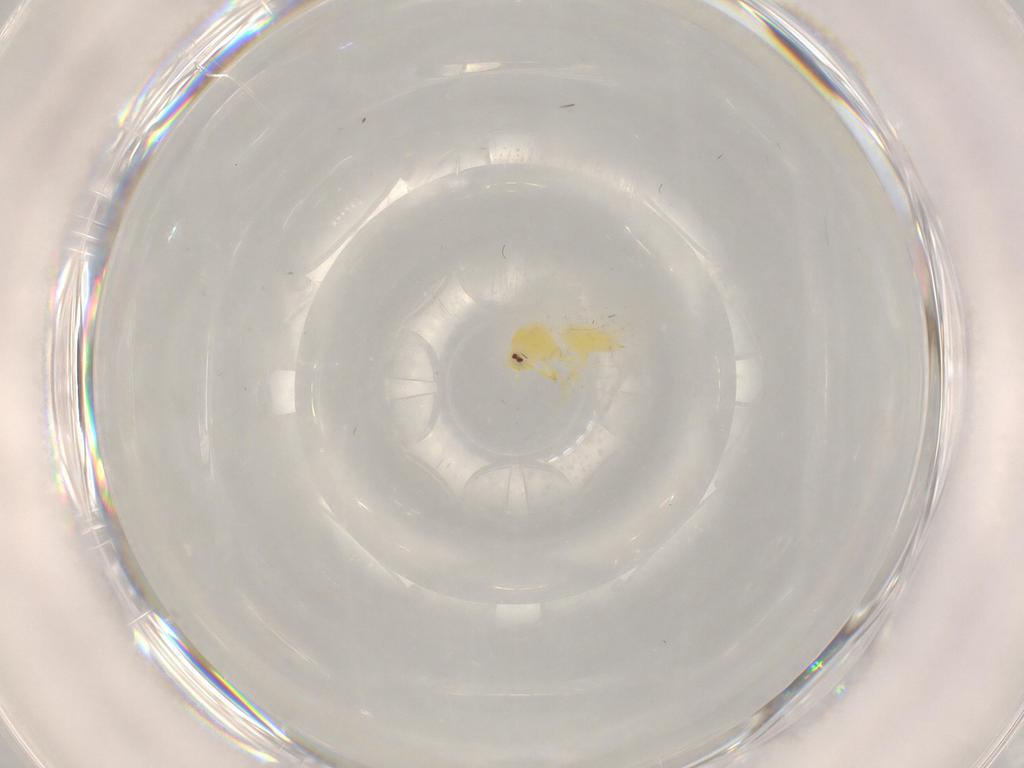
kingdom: Animalia
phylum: Arthropoda
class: Insecta
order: Hemiptera
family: Aleyrodidae
